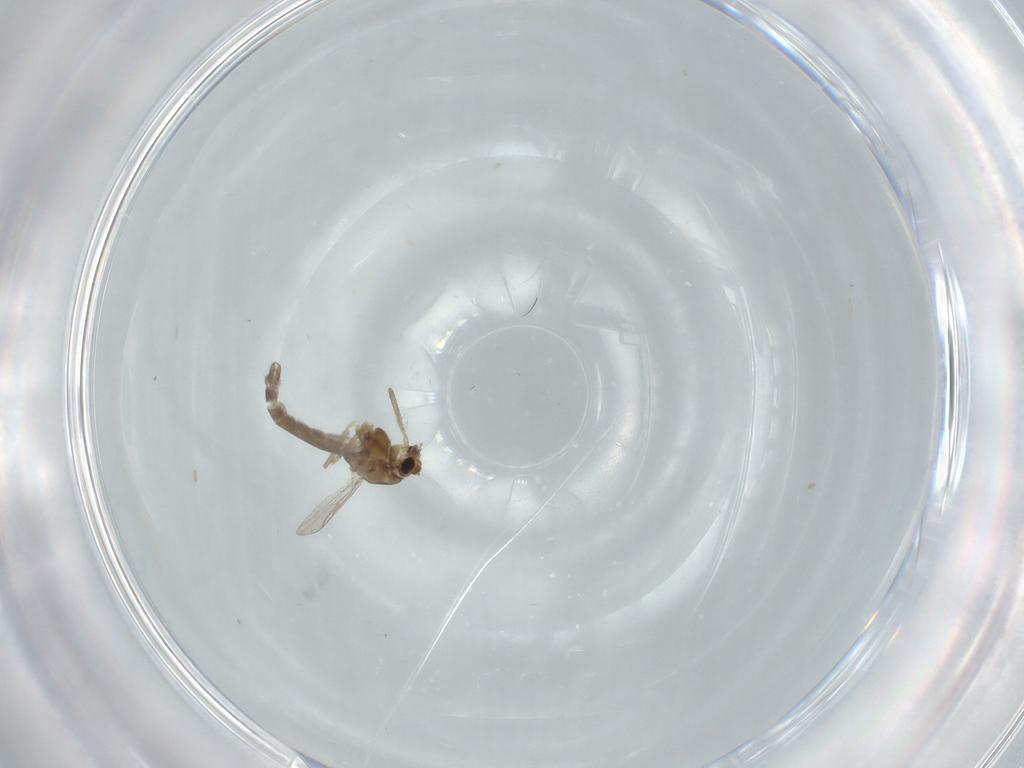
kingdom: Animalia
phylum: Arthropoda
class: Insecta
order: Diptera
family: Chironomidae
